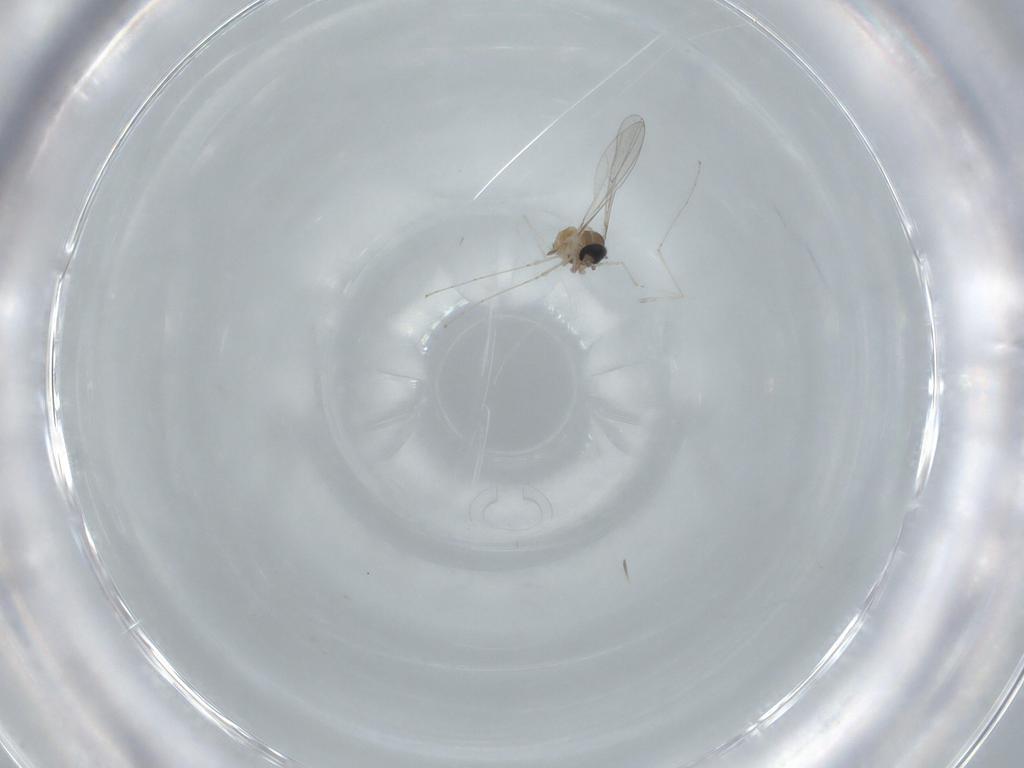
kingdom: Animalia
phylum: Arthropoda
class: Insecta
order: Diptera
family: Cecidomyiidae
